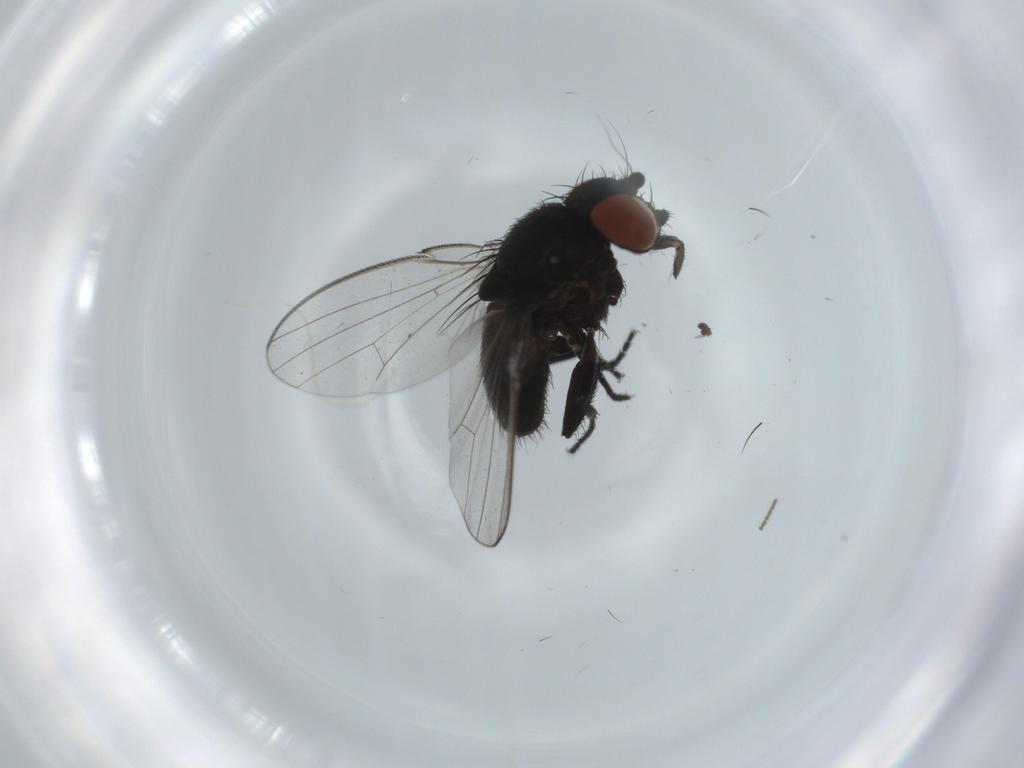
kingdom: Animalia
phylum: Arthropoda
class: Insecta
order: Diptera
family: Milichiidae
